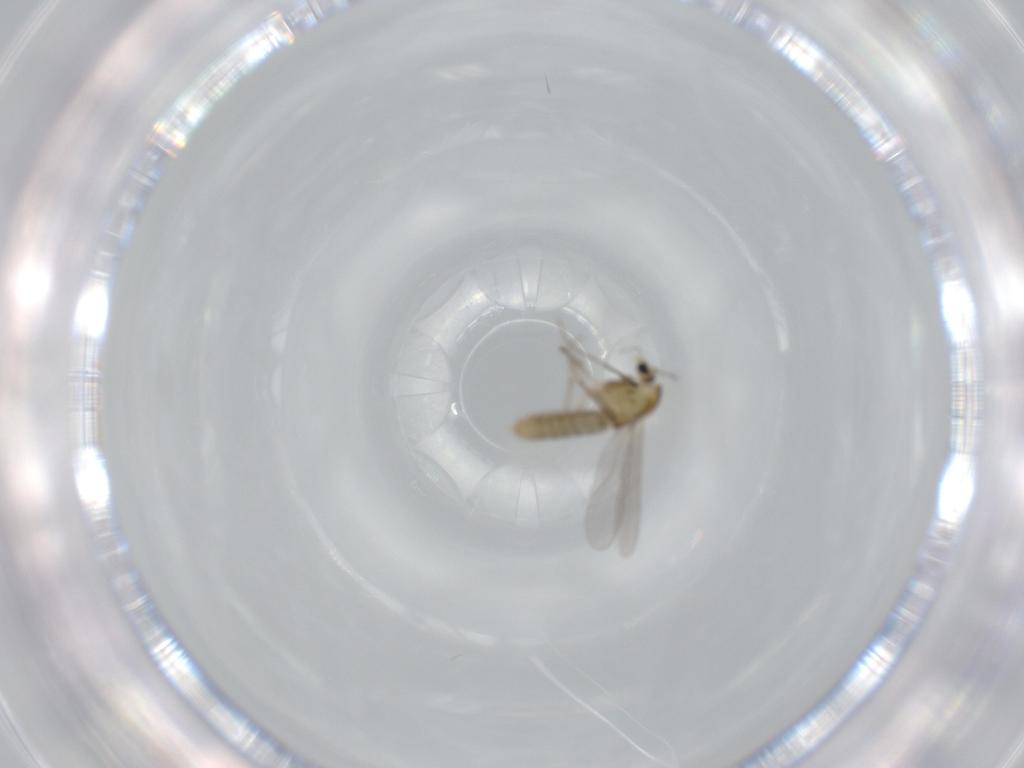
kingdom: Animalia
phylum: Arthropoda
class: Insecta
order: Diptera
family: Chironomidae
